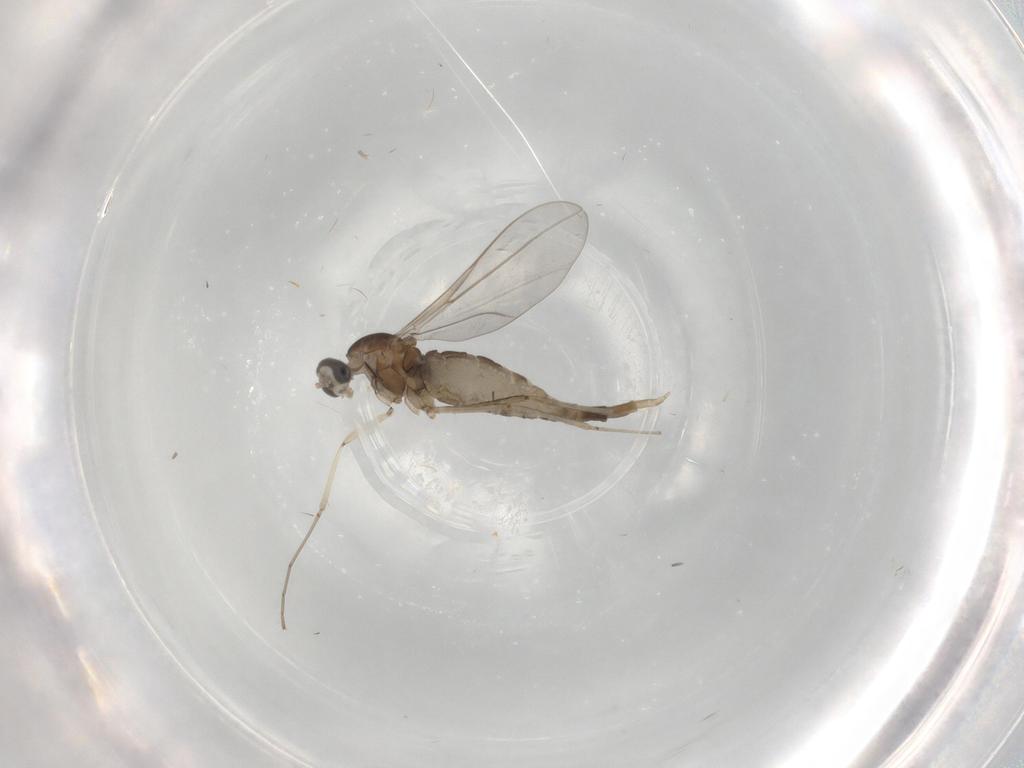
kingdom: Animalia
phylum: Arthropoda
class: Insecta
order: Diptera
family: Cecidomyiidae
